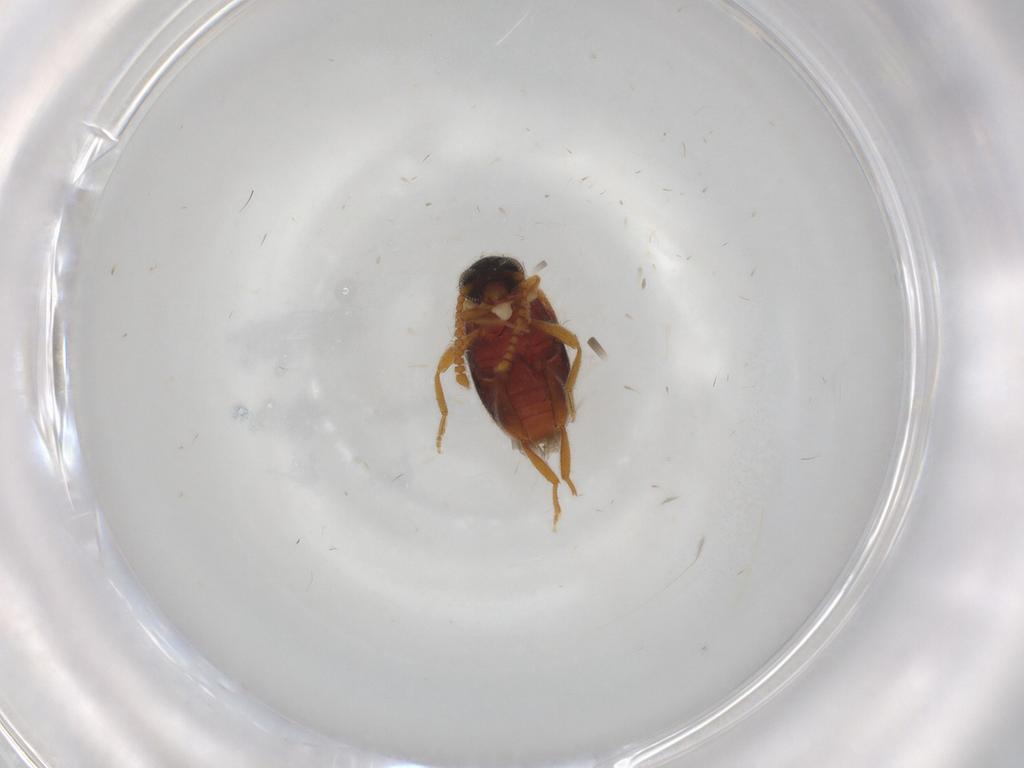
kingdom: Animalia
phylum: Arthropoda
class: Insecta
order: Coleoptera
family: Aderidae
